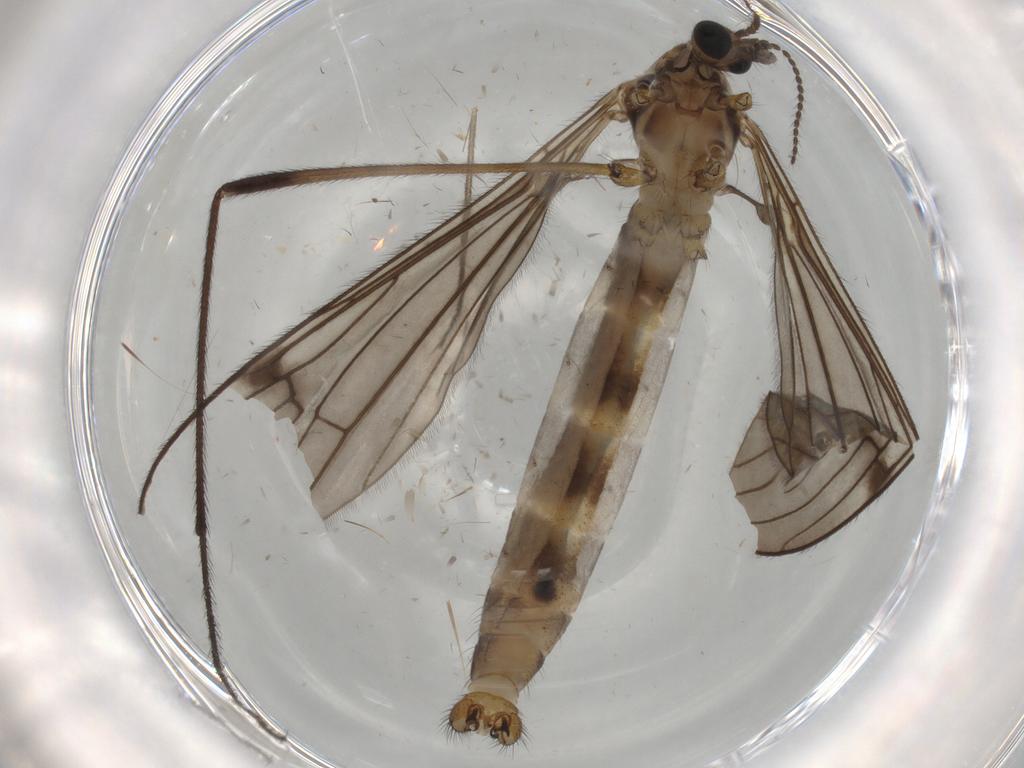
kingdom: Animalia
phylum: Arthropoda
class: Insecta
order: Diptera
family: Limoniidae
